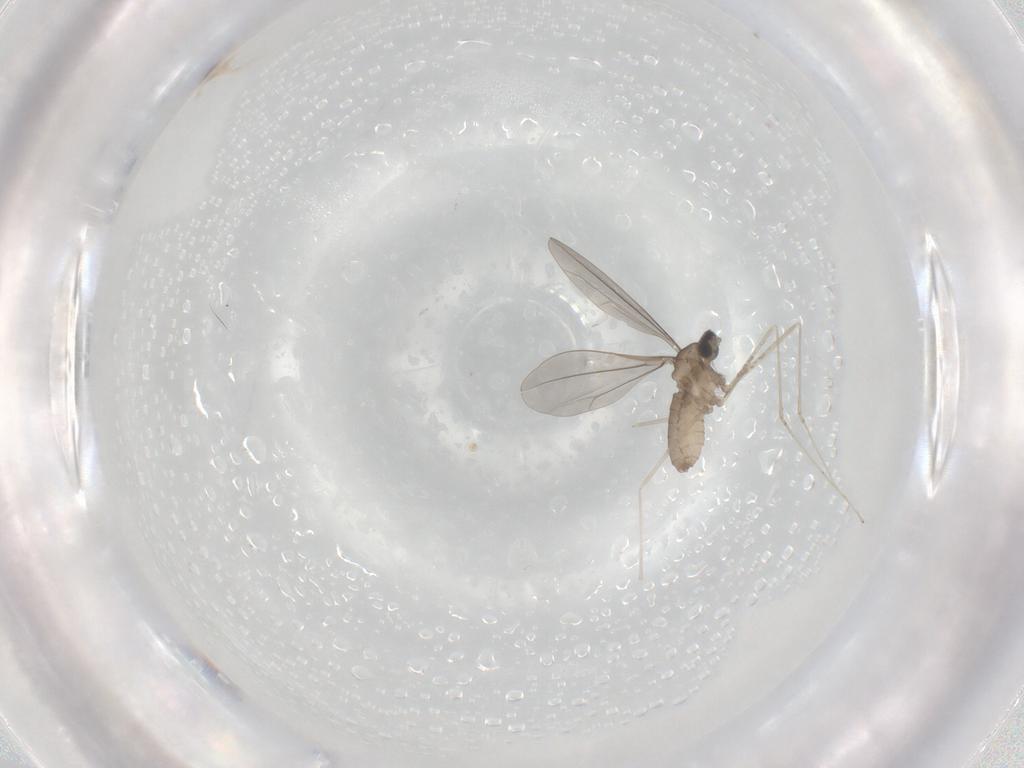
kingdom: Animalia
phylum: Arthropoda
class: Insecta
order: Diptera
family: Cecidomyiidae
